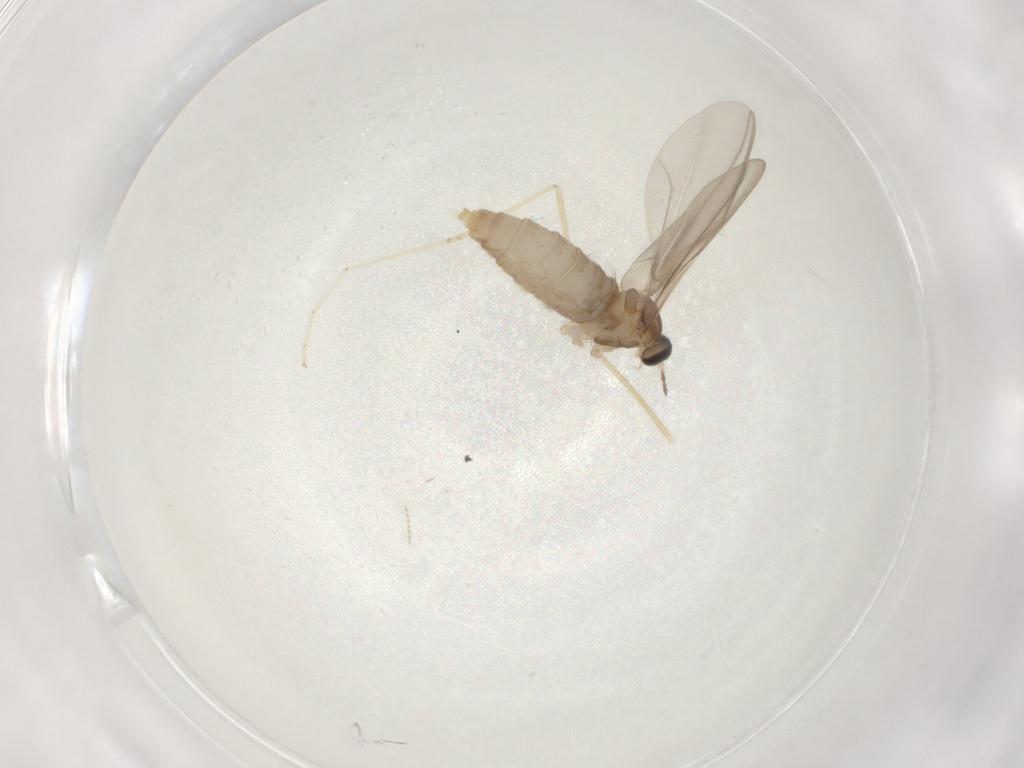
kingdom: Animalia
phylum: Arthropoda
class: Insecta
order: Diptera
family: Cecidomyiidae
